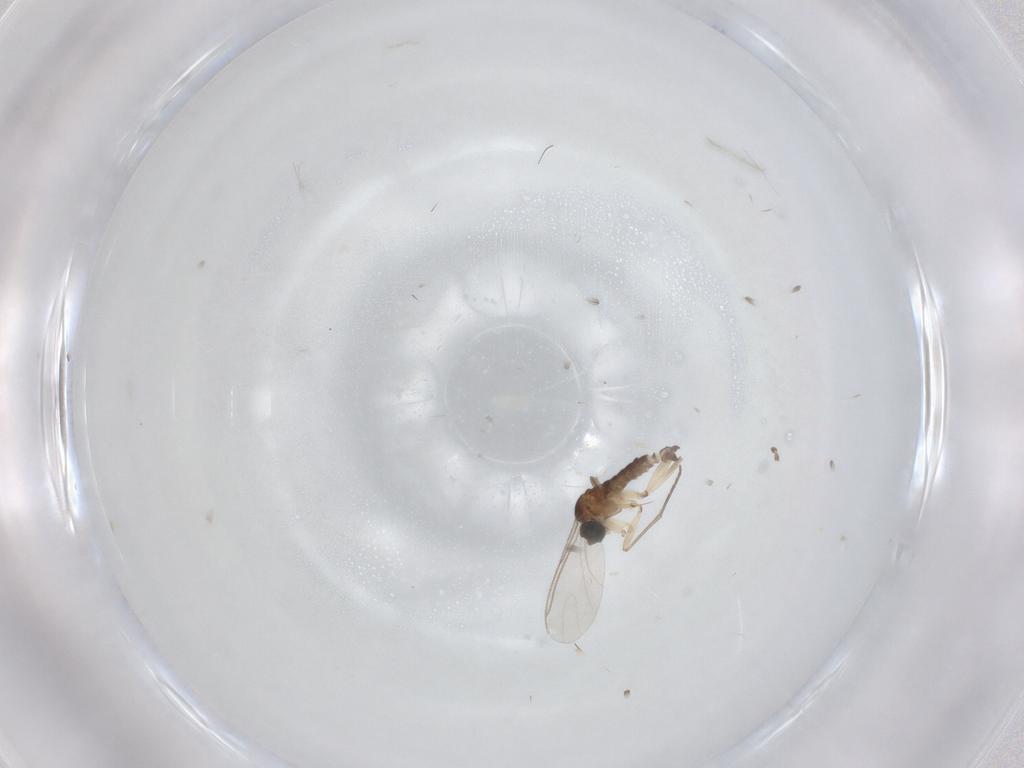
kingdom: Animalia
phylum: Arthropoda
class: Insecta
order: Diptera
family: Sciaridae
